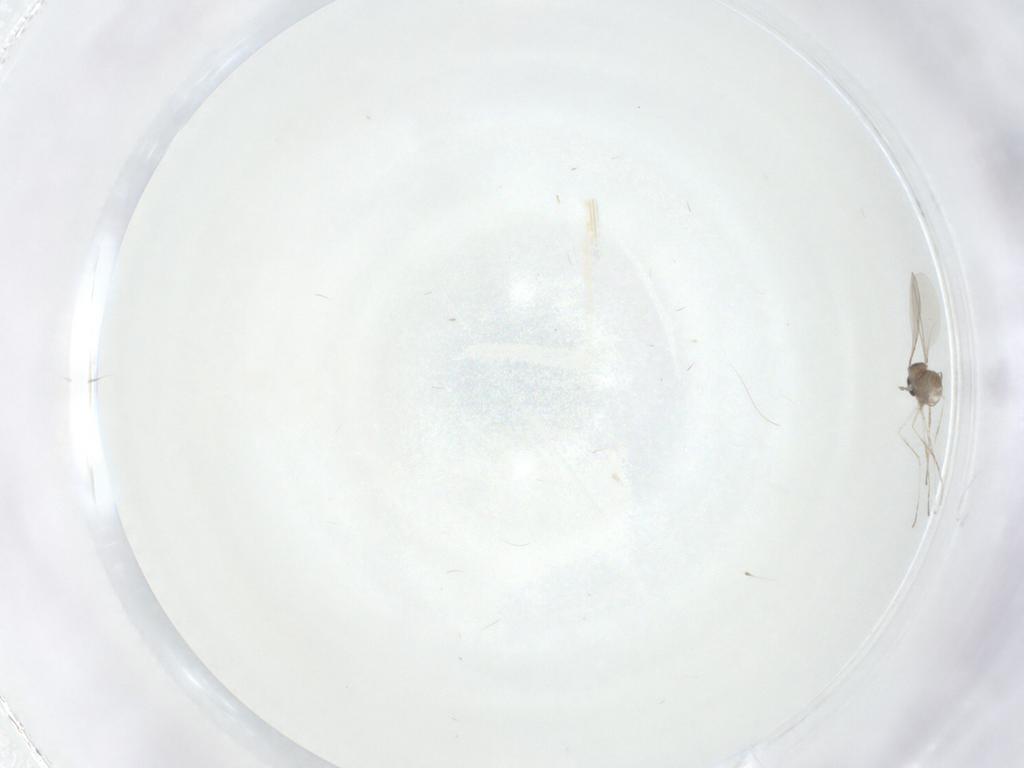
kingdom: Animalia
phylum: Arthropoda
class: Insecta
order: Diptera
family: Cecidomyiidae
